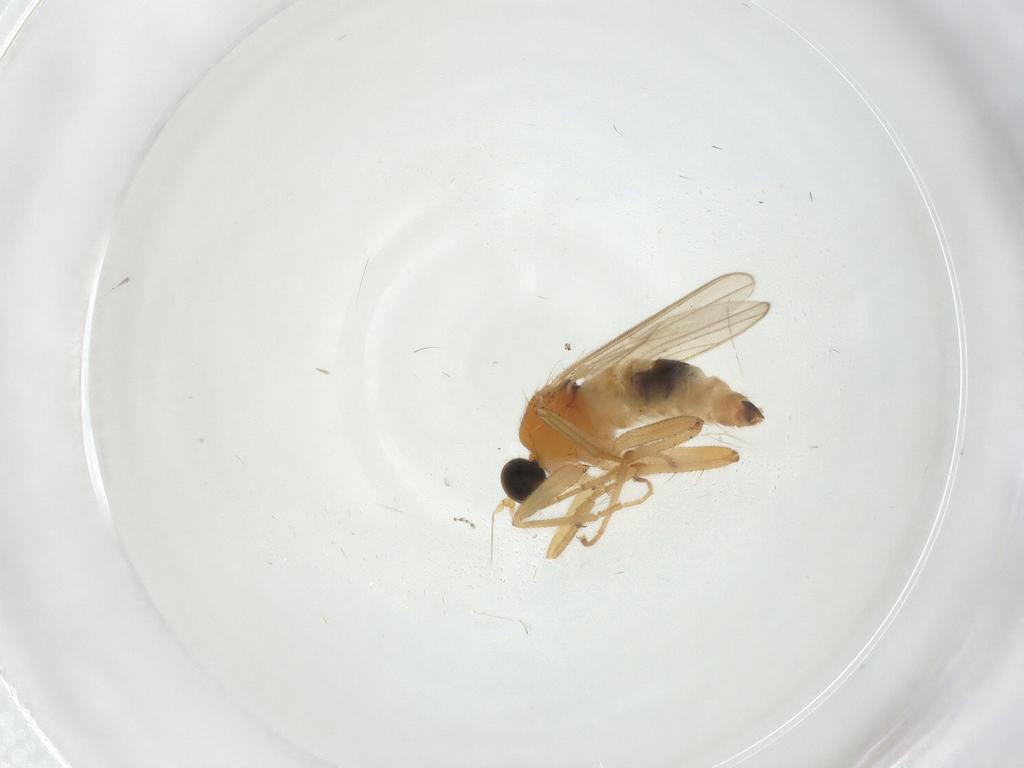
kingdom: Animalia
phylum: Arthropoda
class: Insecta
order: Diptera
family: Hybotidae
